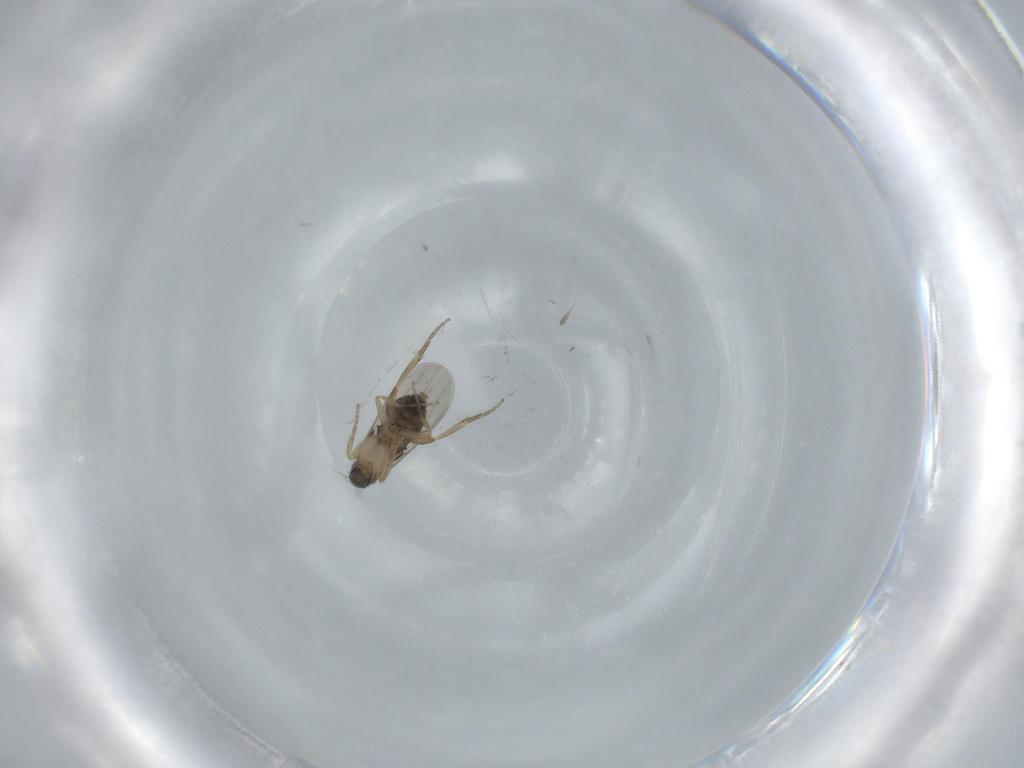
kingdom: Animalia
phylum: Arthropoda
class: Insecta
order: Diptera
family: Phoridae
